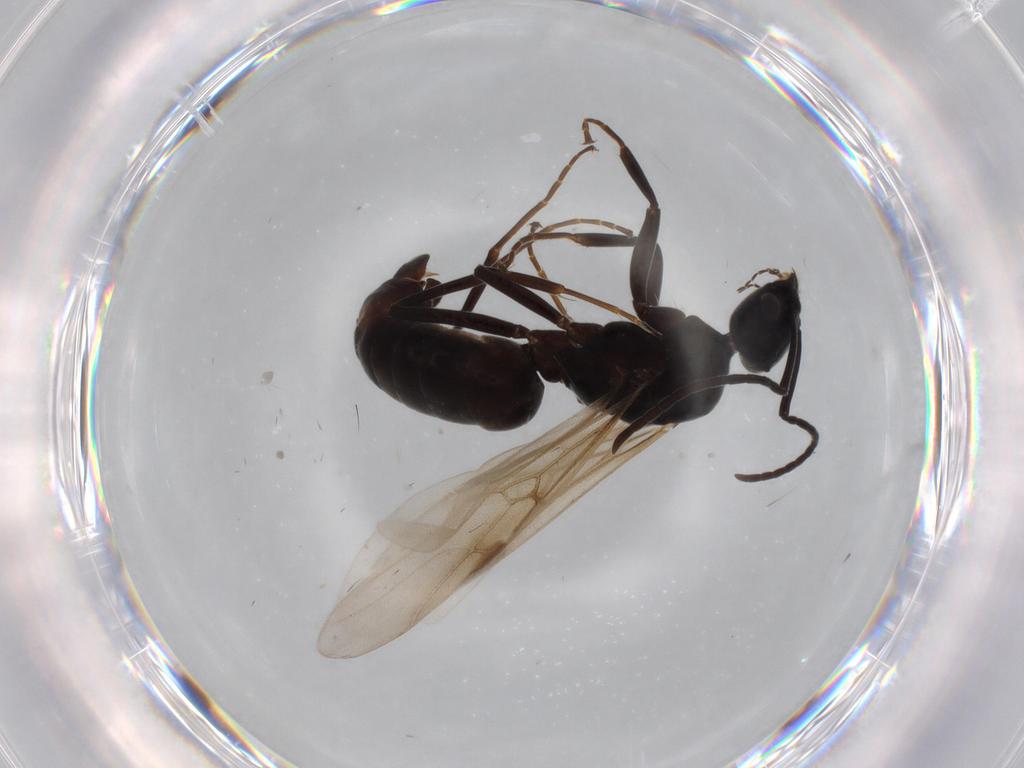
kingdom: Animalia
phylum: Arthropoda
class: Insecta
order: Hymenoptera
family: Formicidae
